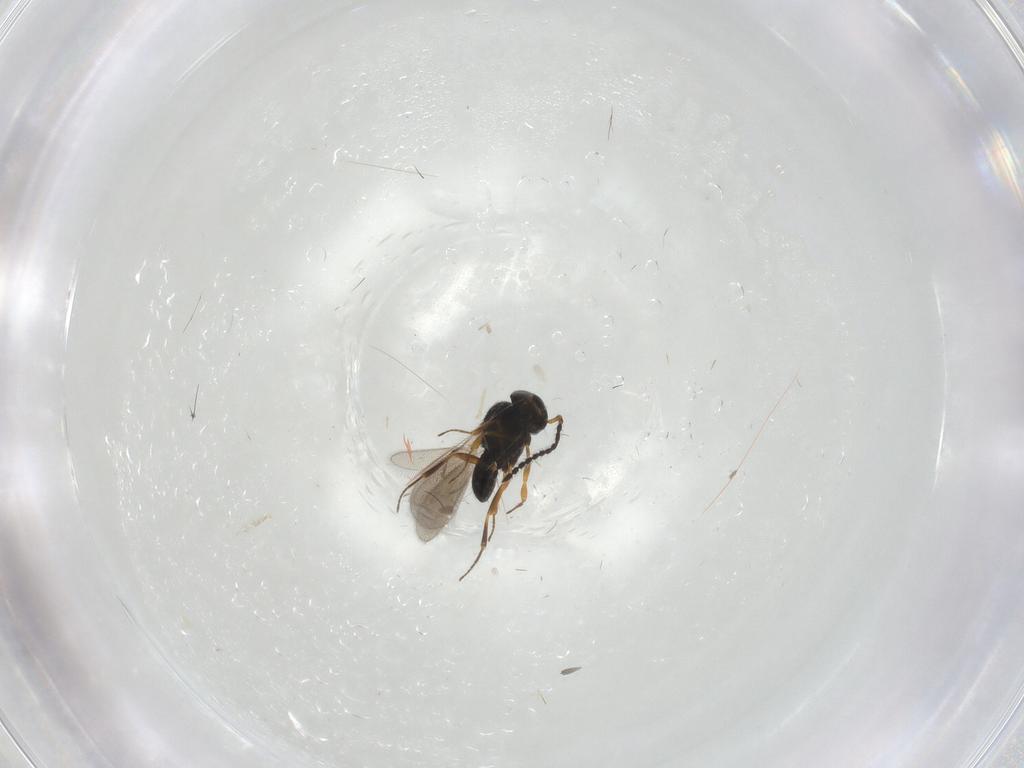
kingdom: Animalia
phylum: Arthropoda
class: Insecta
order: Hymenoptera
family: Scelionidae
